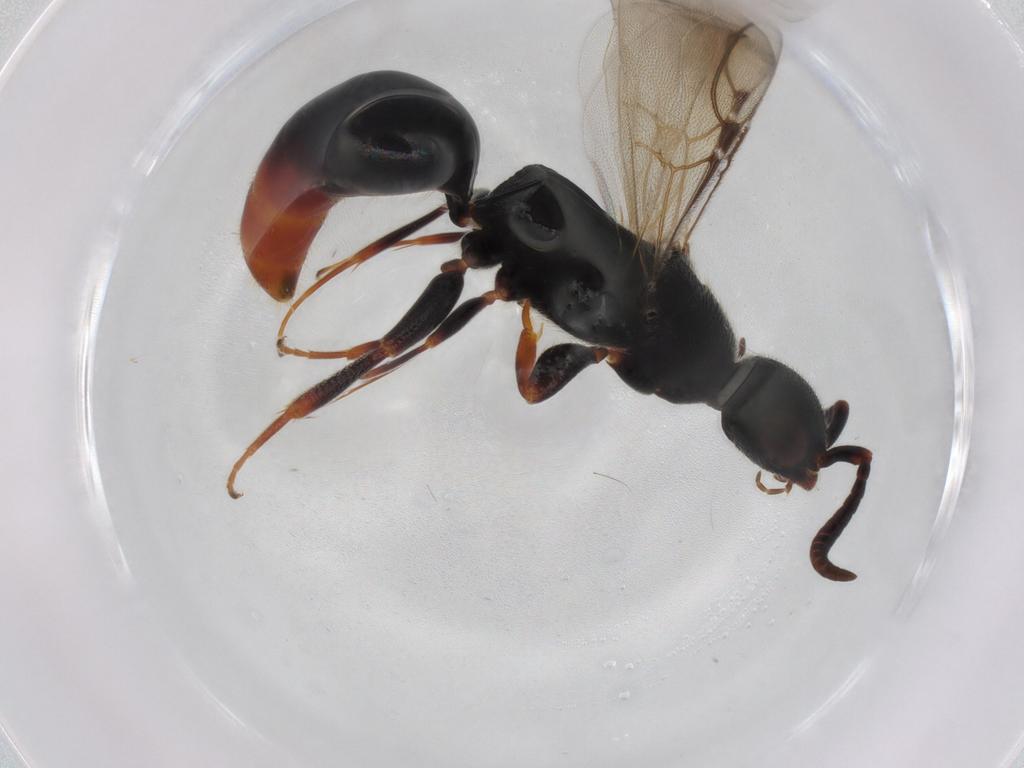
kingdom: Animalia
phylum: Arthropoda
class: Insecta
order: Hymenoptera
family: Bethylidae
